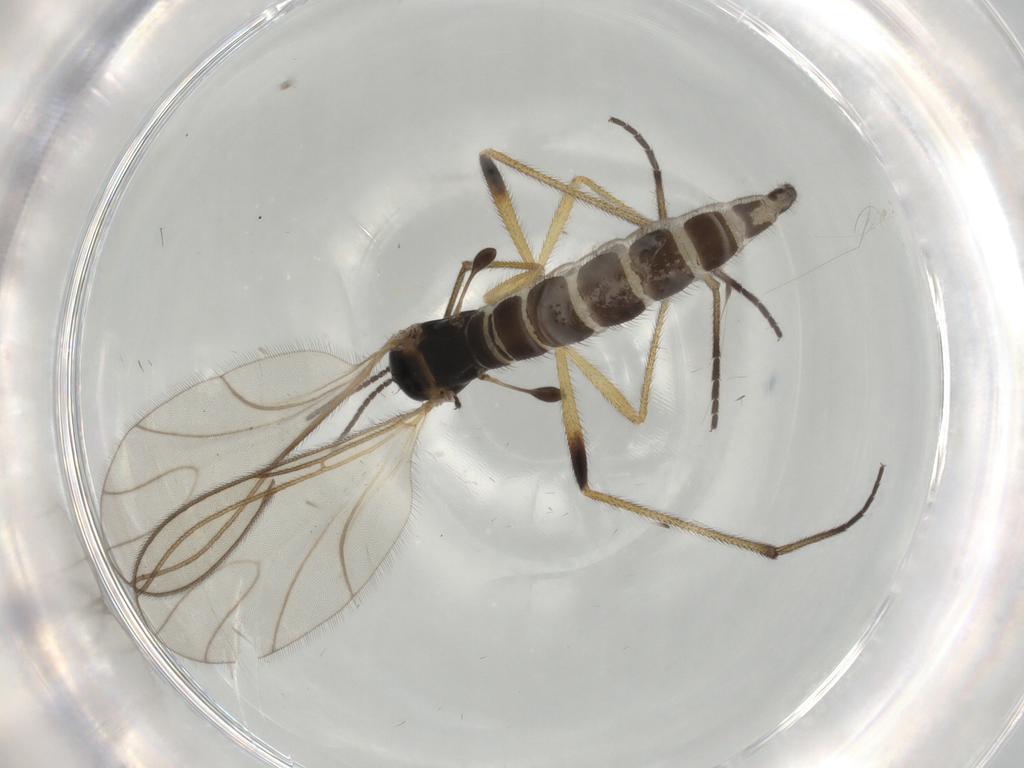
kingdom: Animalia
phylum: Arthropoda
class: Insecta
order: Diptera
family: Sciaridae
